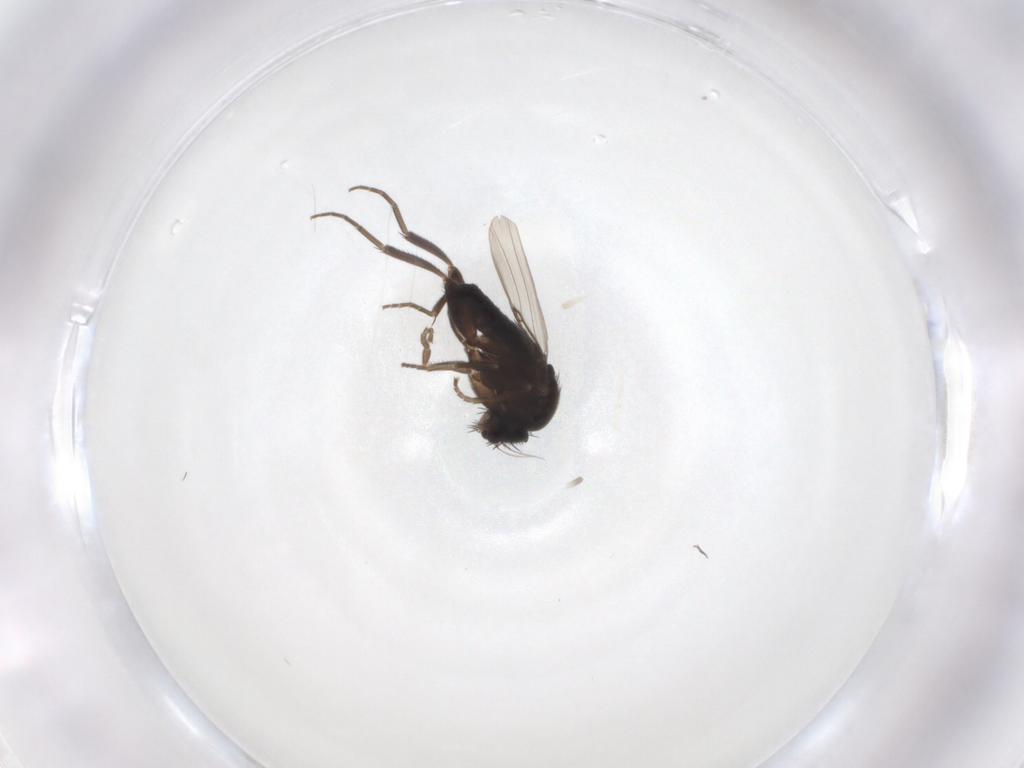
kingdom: Animalia
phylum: Arthropoda
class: Insecta
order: Diptera
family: Phoridae
